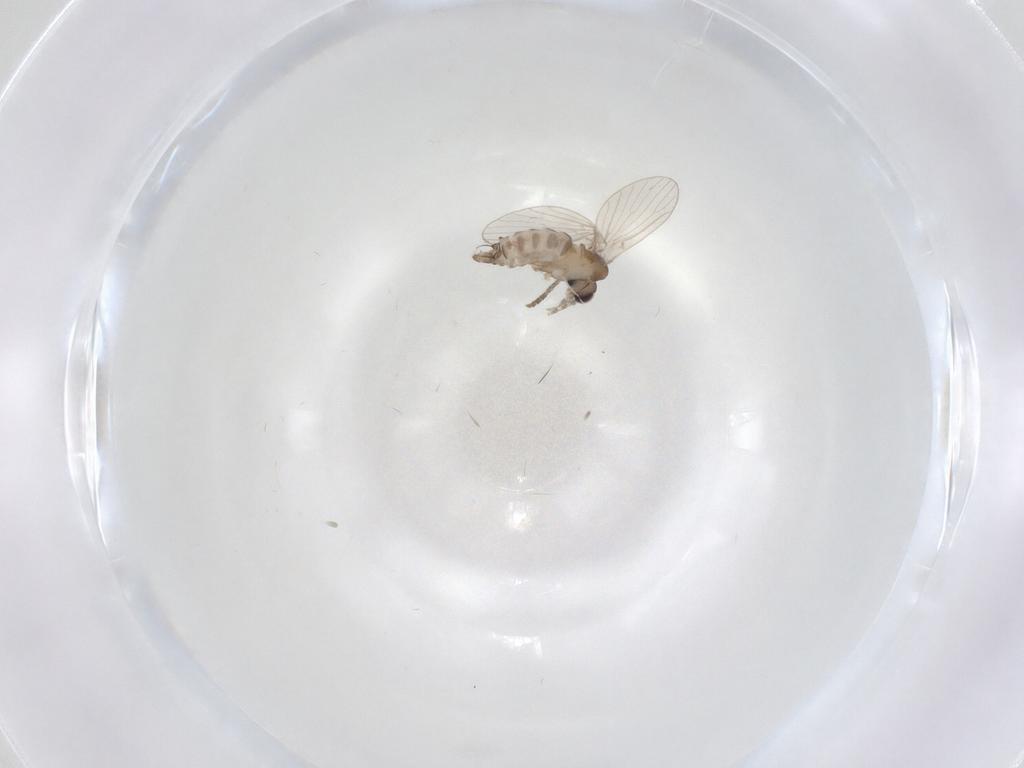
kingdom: Animalia
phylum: Arthropoda
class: Insecta
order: Diptera
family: Psychodidae
